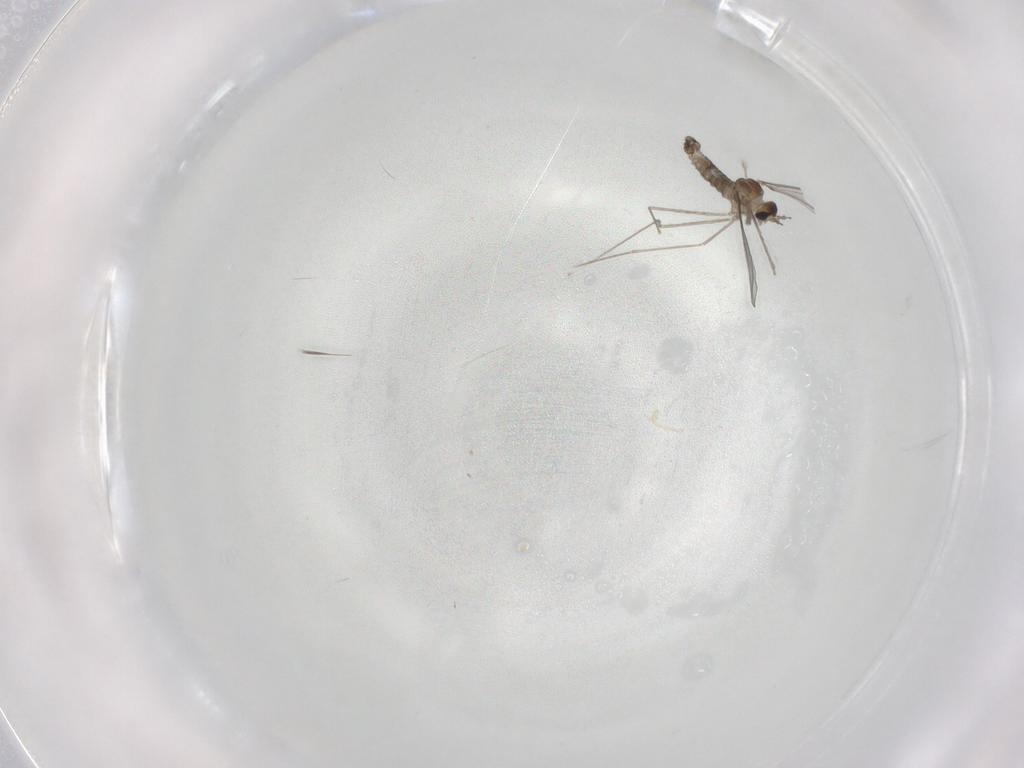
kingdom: Animalia
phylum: Arthropoda
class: Insecta
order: Diptera
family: Cecidomyiidae
